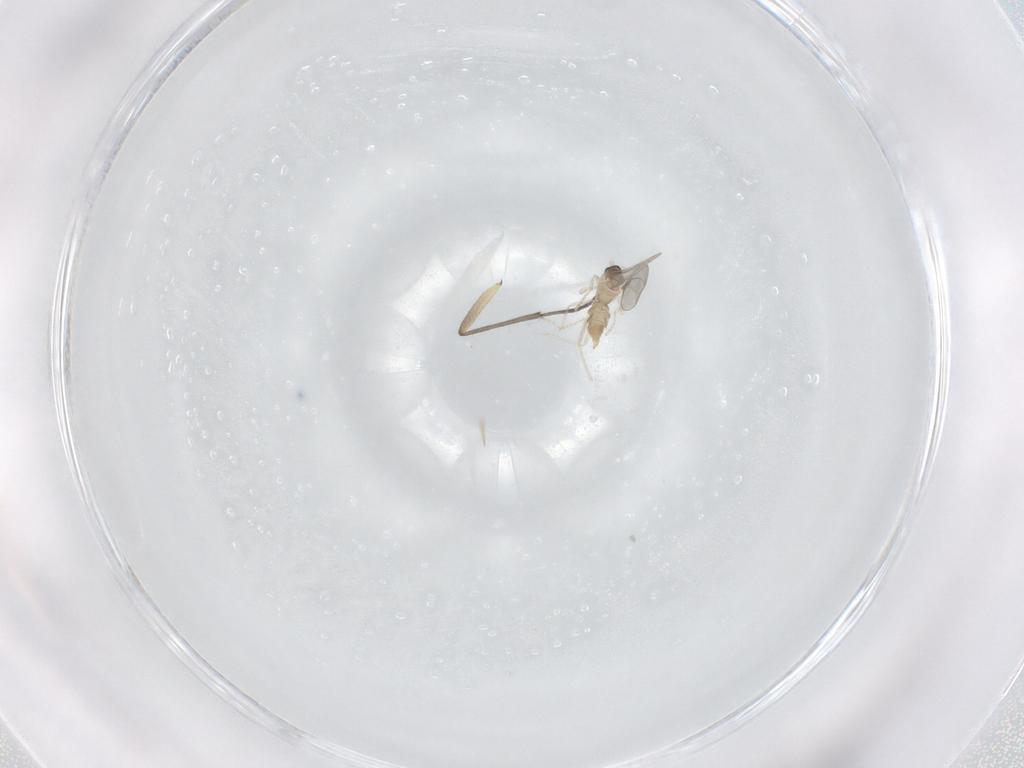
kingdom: Animalia
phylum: Arthropoda
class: Insecta
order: Diptera
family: Cecidomyiidae
